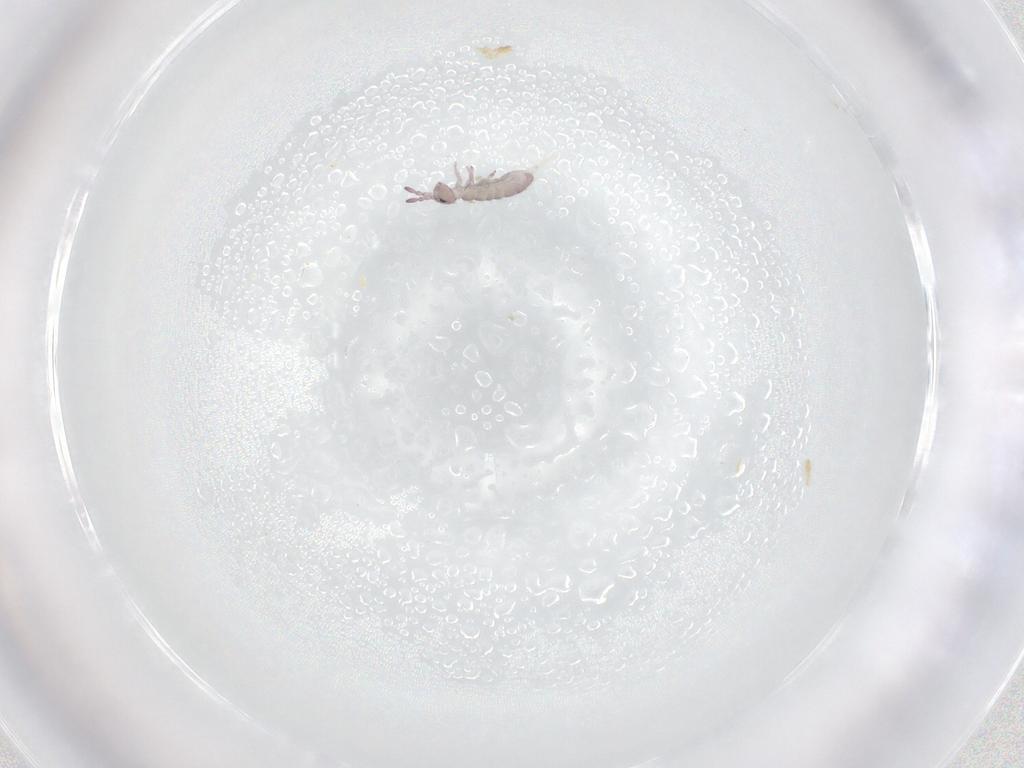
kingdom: Animalia
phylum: Arthropoda
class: Collembola
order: Entomobryomorpha
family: Isotomidae
